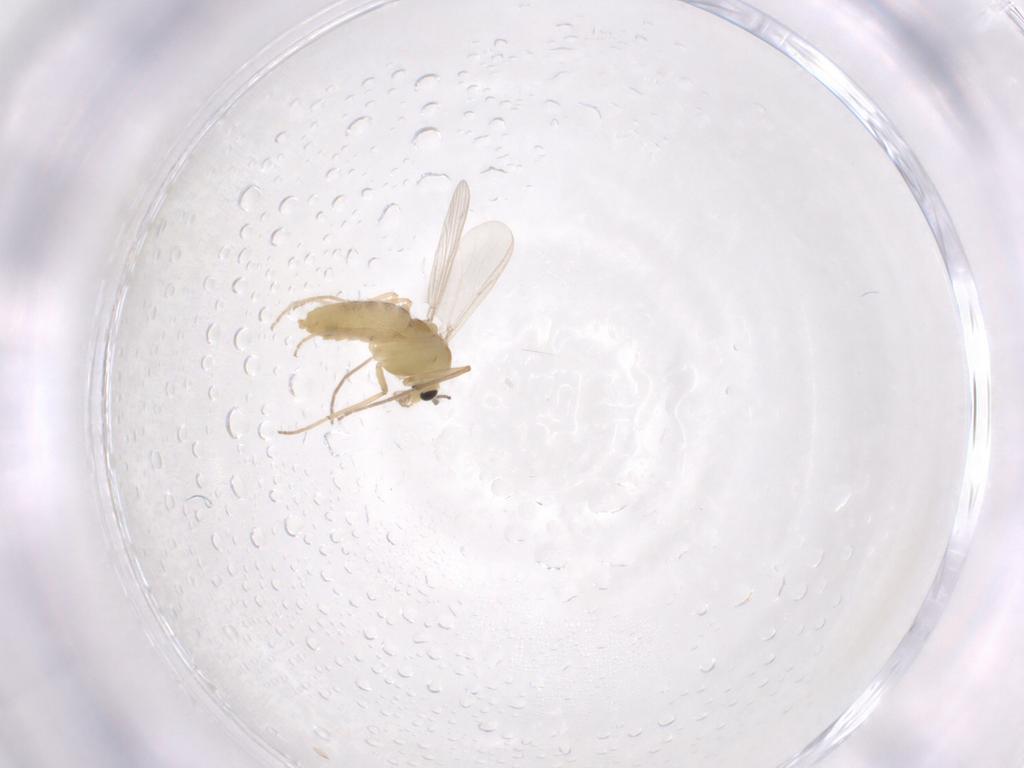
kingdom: Animalia
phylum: Arthropoda
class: Insecta
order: Diptera
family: Chironomidae
